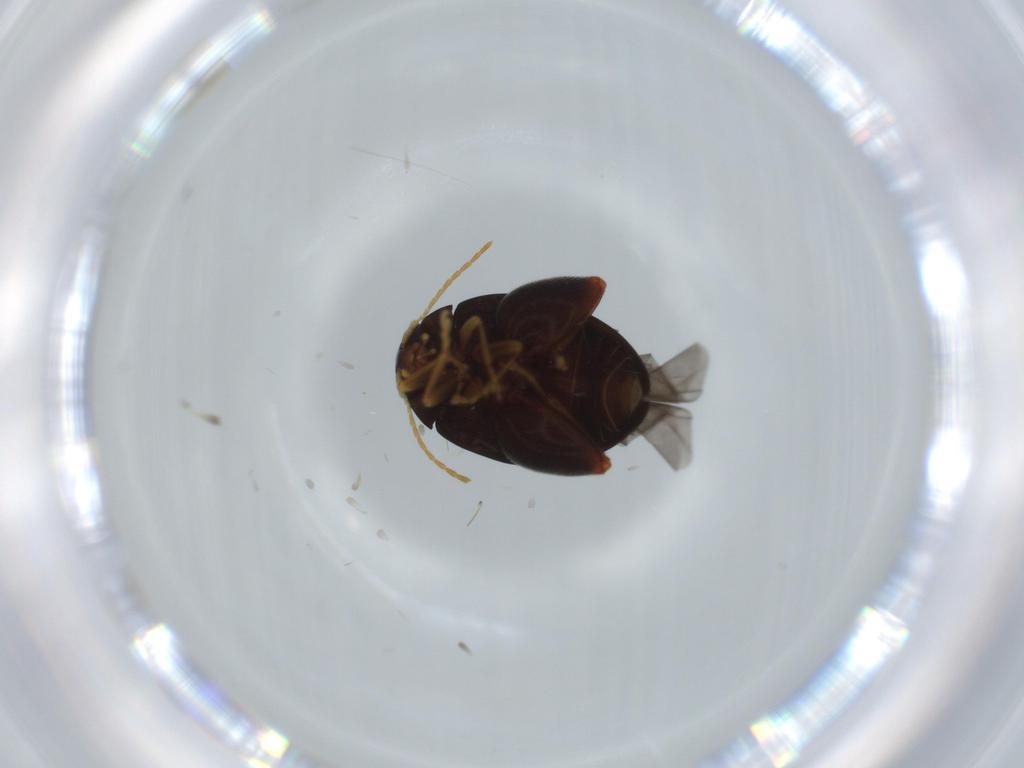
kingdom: Animalia
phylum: Arthropoda
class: Insecta
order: Coleoptera
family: Chrysomelidae
